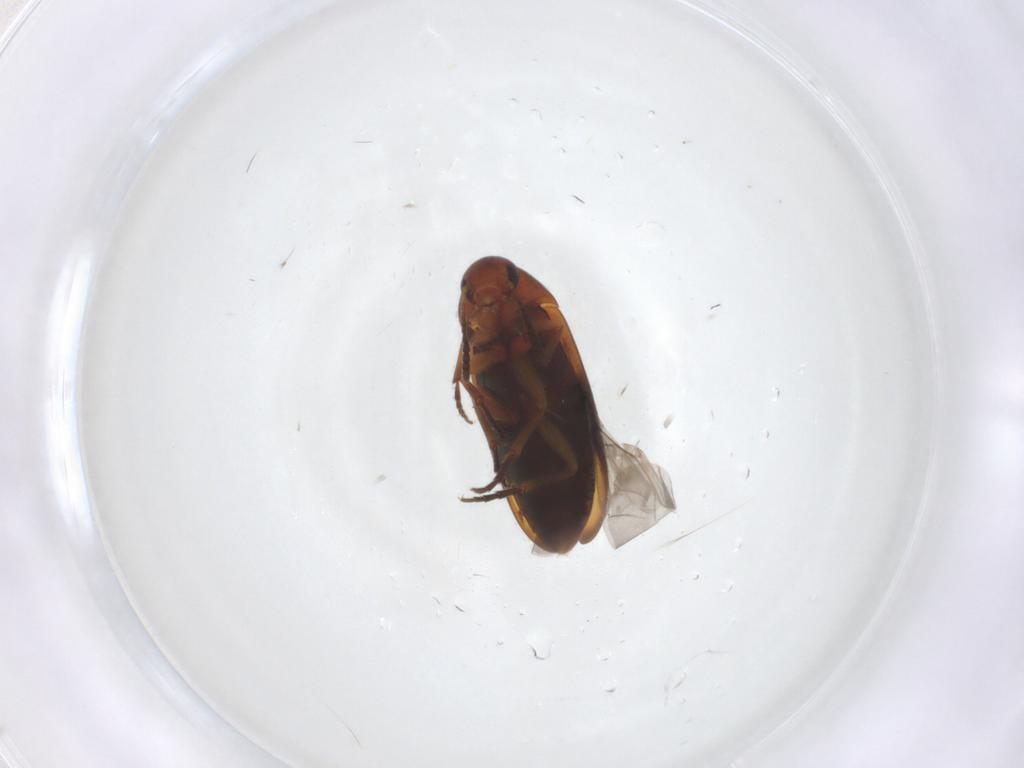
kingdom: Animalia
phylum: Arthropoda
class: Insecta
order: Coleoptera
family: Scraptiidae
